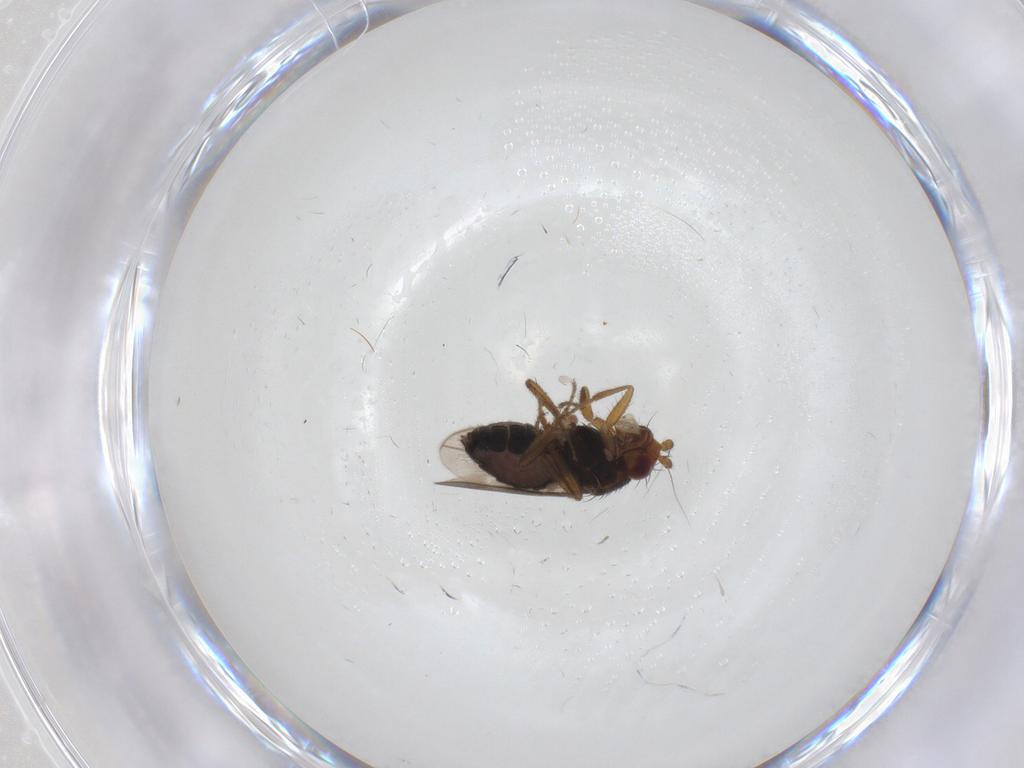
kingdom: Animalia
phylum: Arthropoda
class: Insecta
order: Diptera
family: Sphaeroceridae
